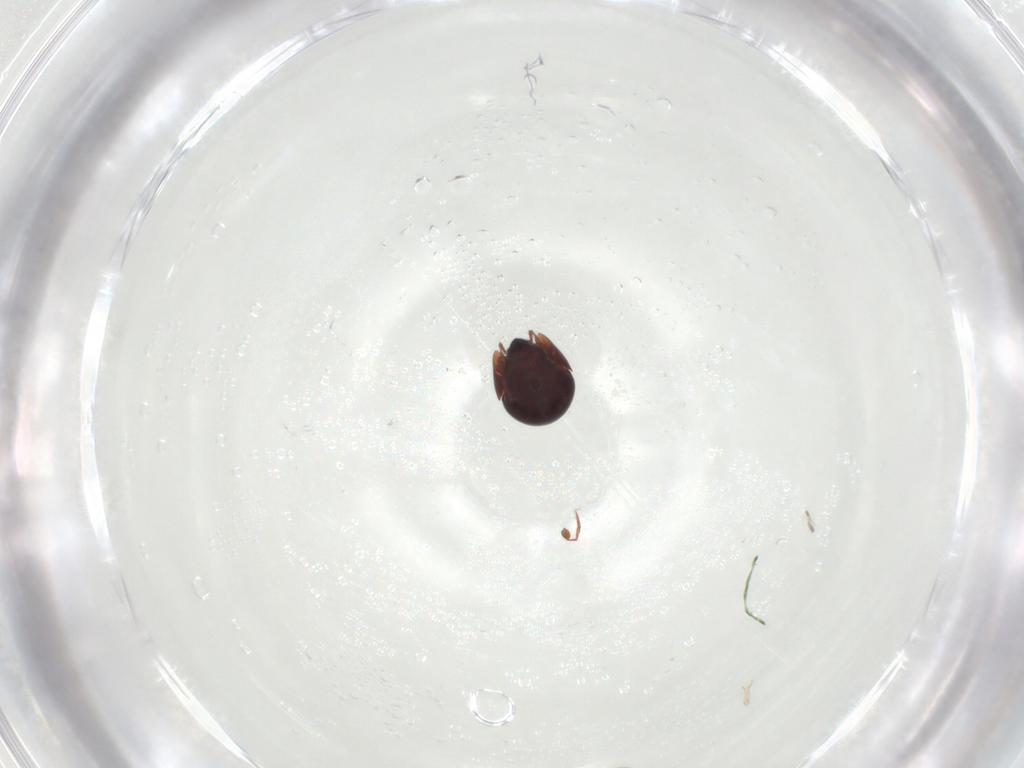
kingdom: Animalia
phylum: Arthropoda
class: Arachnida
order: Sarcoptiformes
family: Galumnidae
